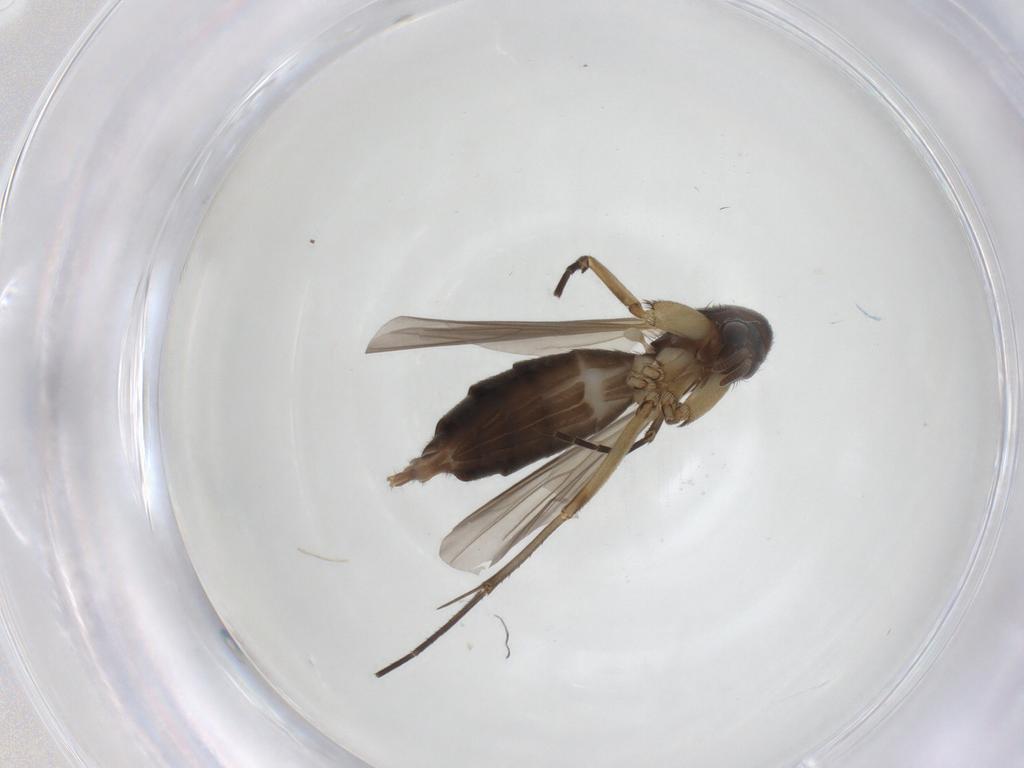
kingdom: Animalia
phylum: Arthropoda
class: Insecta
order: Diptera
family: Mycetophilidae
